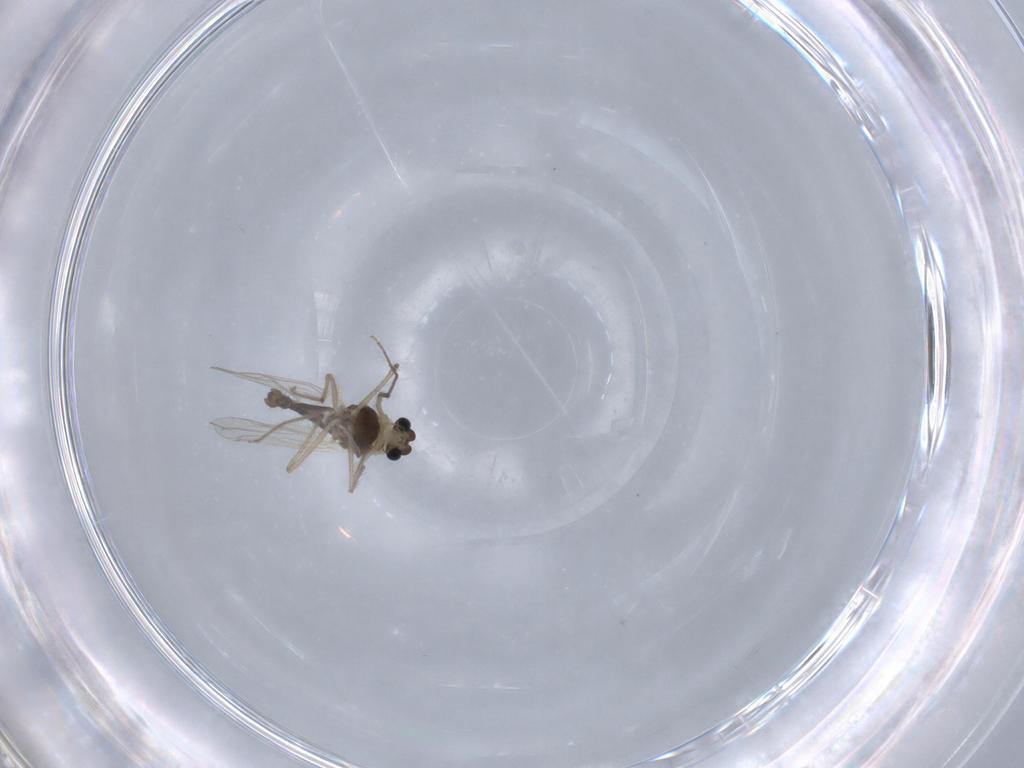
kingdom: Animalia
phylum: Arthropoda
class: Insecta
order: Diptera
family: Chironomidae
